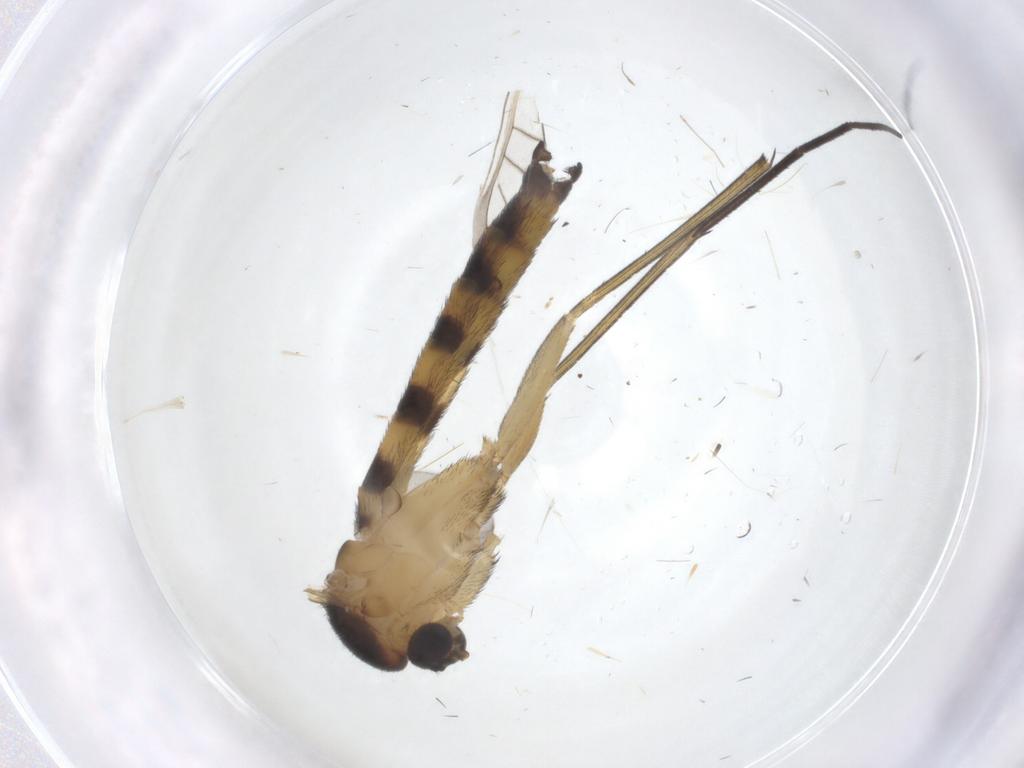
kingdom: Animalia
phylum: Arthropoda
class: Insecta
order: Diptera
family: Keroplatidae
